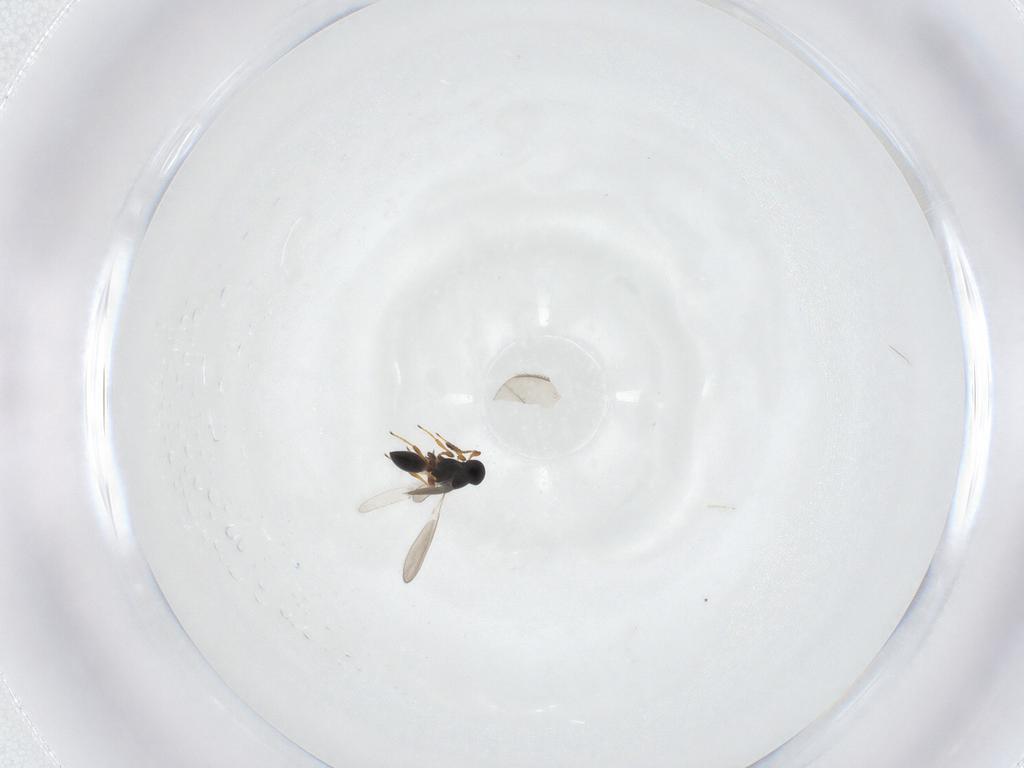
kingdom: Animalia
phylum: Arthropoda
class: Insecta
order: Hymenoptera
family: Platygastridae
